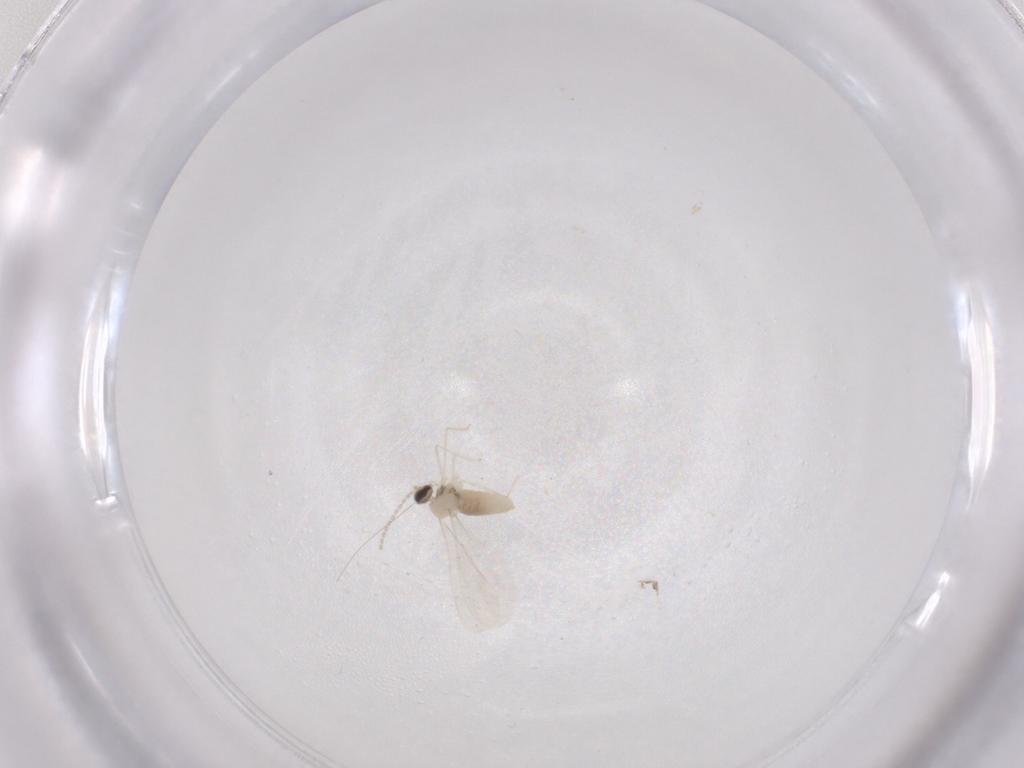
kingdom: Animalia
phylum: Arthropoda
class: Insecta
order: Diptera
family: Cecidomyiidae
